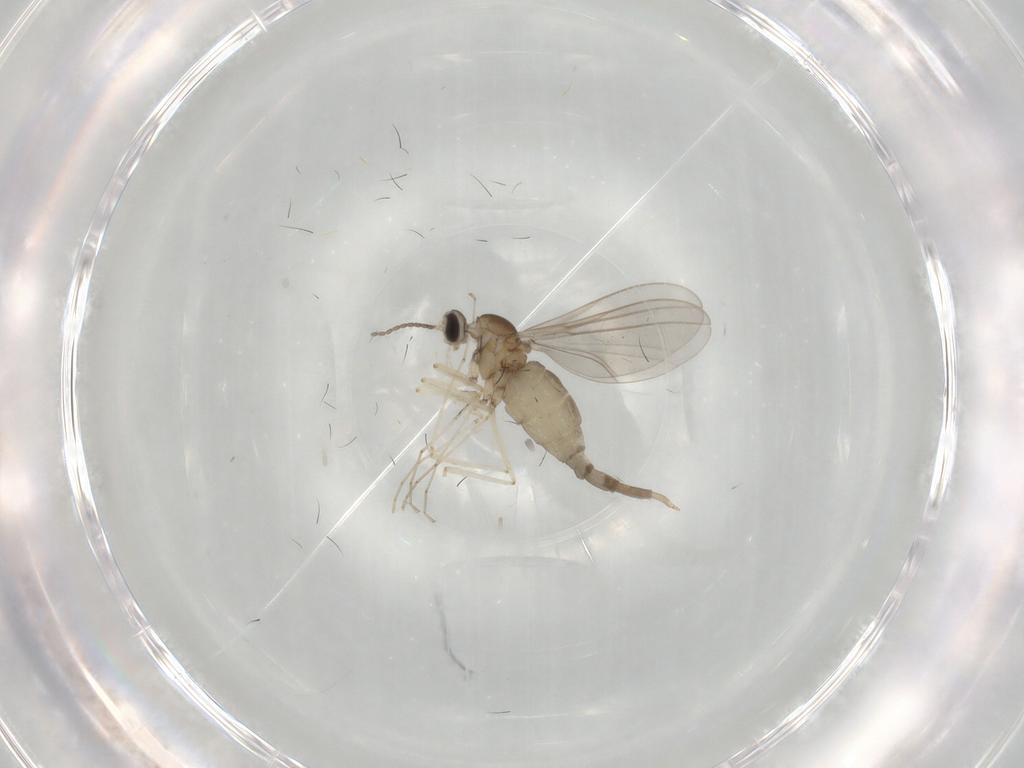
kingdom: Animalia
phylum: Arthropoda
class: Insecta
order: Diptera
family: Cecidomyiidae
